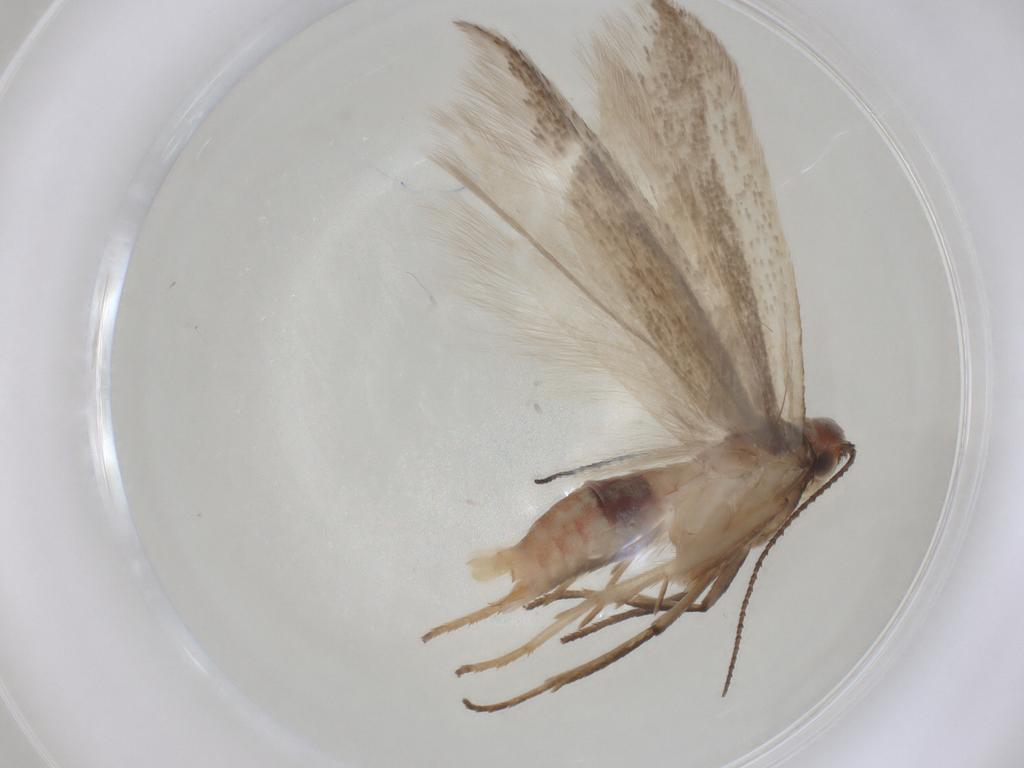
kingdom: Animalia
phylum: Arthropoda
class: Insecta
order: Lepidoptera
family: Gelechiidae
